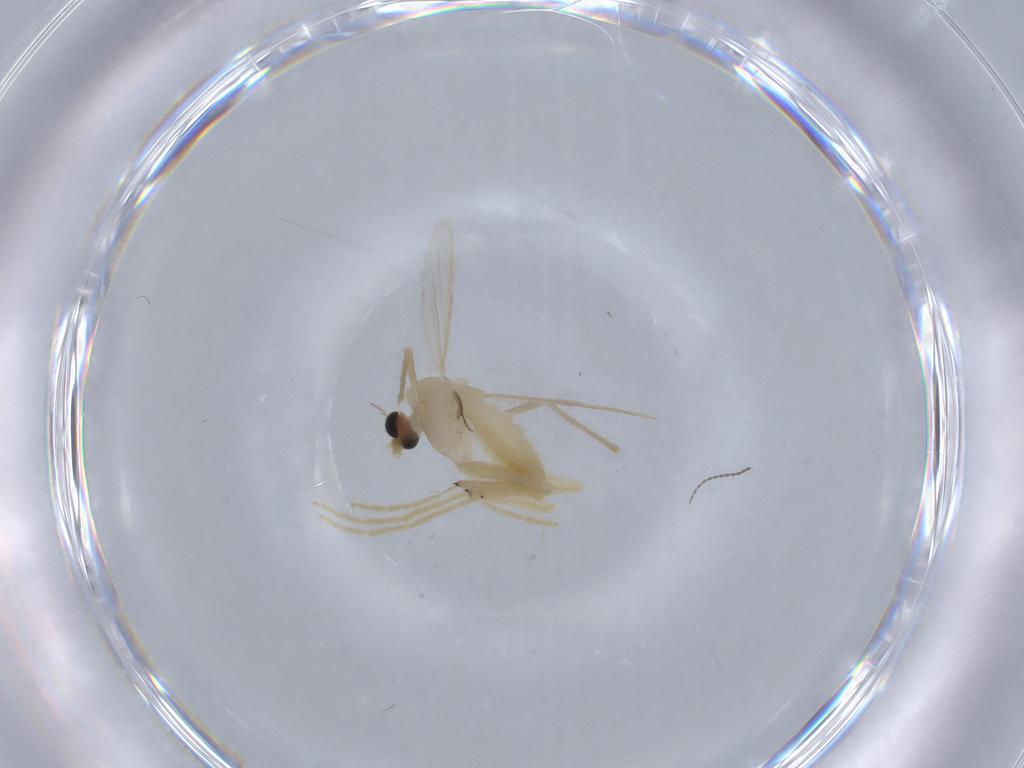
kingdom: Animalia
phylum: Arthropoda
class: Insecta
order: Diptera
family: Chironomidae
